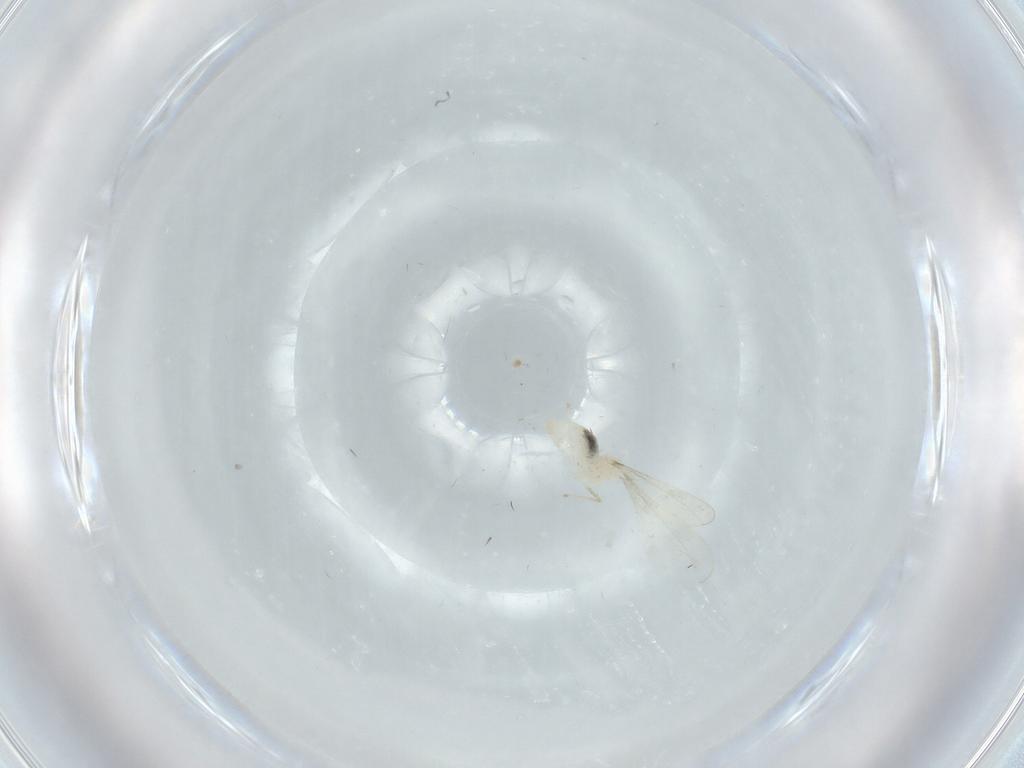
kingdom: Animalia
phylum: Arthropoda
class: Insecta
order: Diptera
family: Cecidomyiidae
